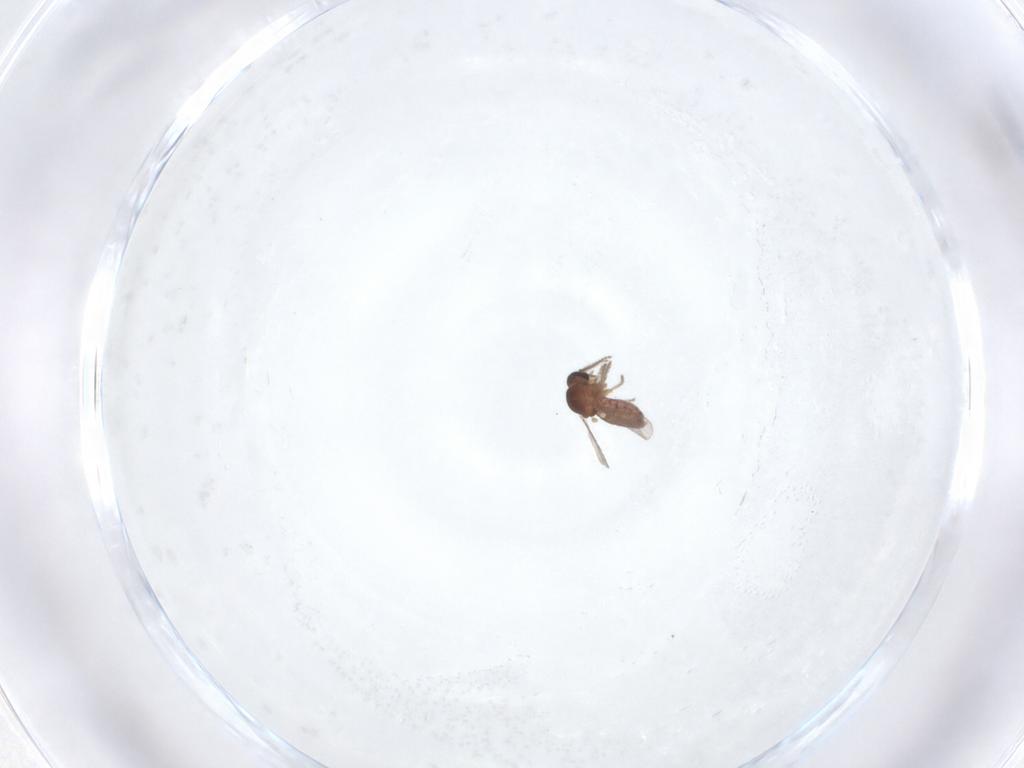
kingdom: Animalia
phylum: Arthropoda
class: Insecta
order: Diptera
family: Ceratopogonidae
